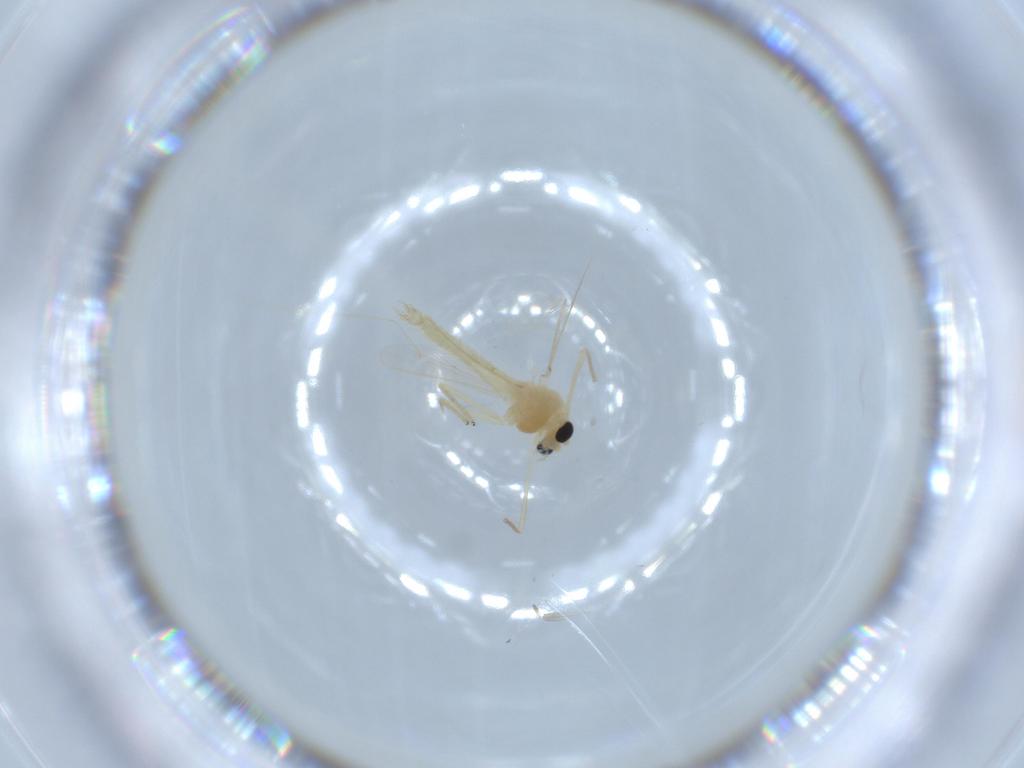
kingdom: Animalia
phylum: Arthropoda
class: Insecta
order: Diptera
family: Chironomidae
